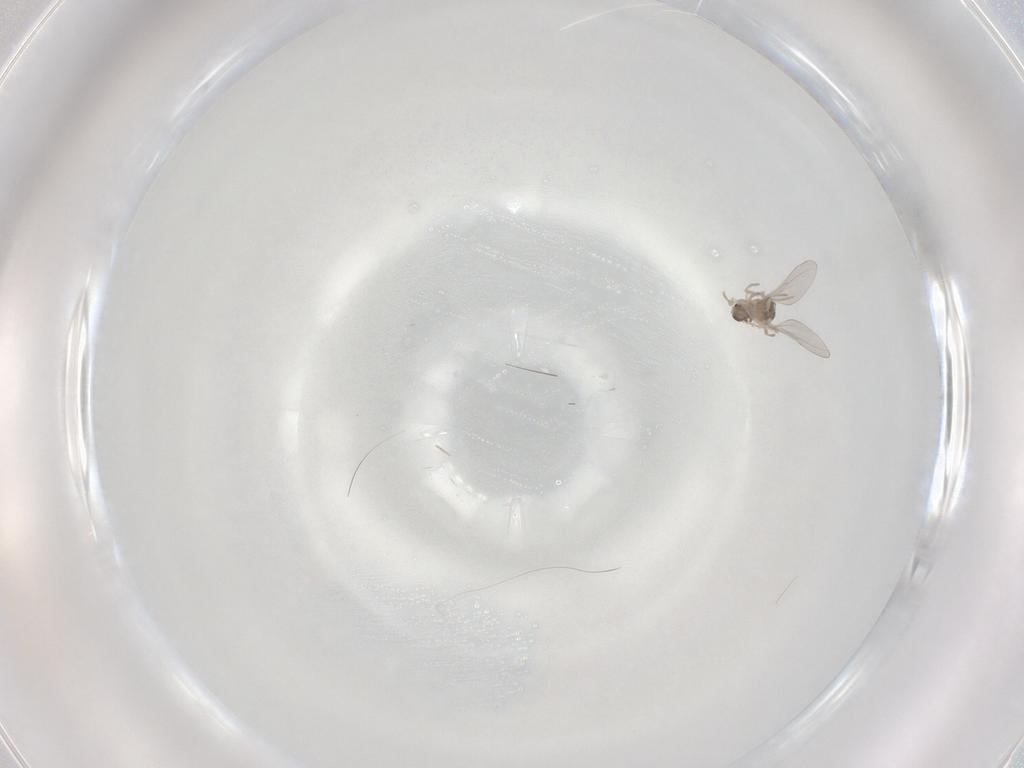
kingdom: Animalia
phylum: Arthropoda
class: Insecta
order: Diptera
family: Cecidomyiidae
